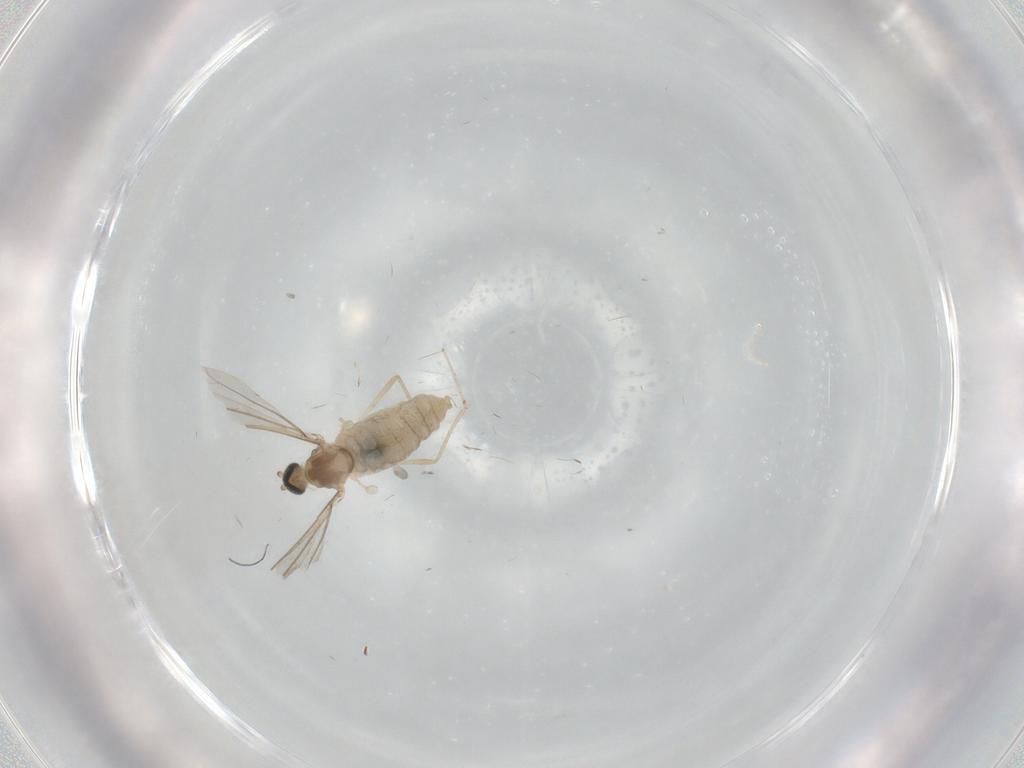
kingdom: Animalia
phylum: Arthropoda
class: Insecta
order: Diptera
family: Cecidomyiidae
